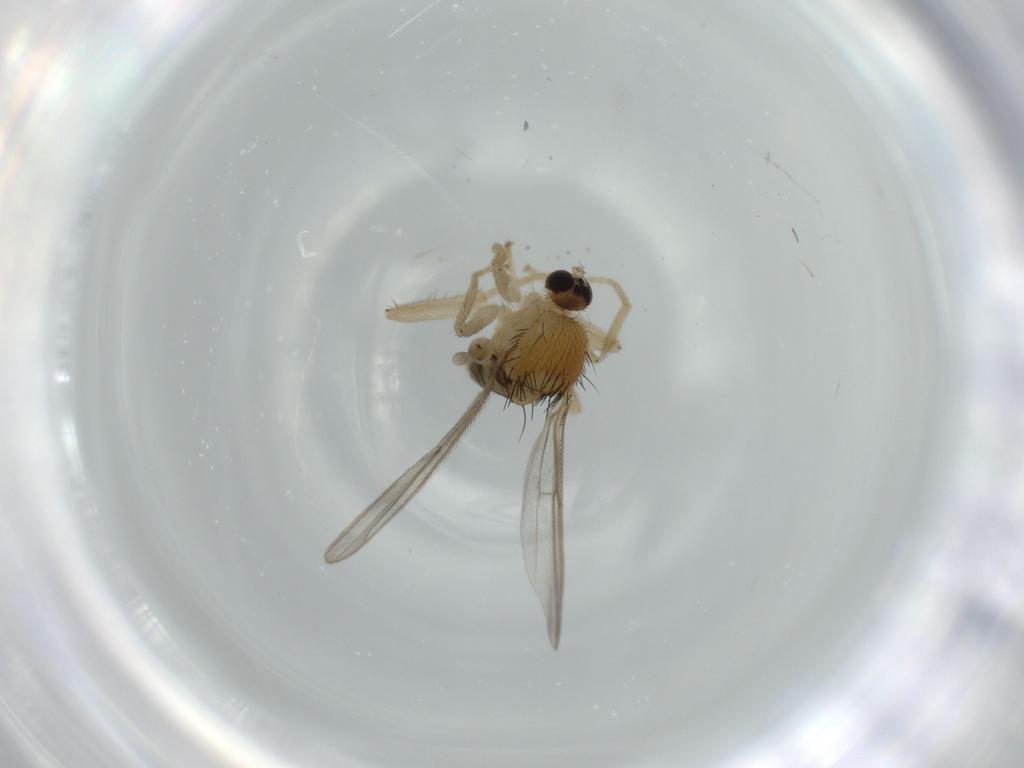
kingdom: Animalia
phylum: Arthropoda
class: Insecta
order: Diptera
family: Hybotidae
